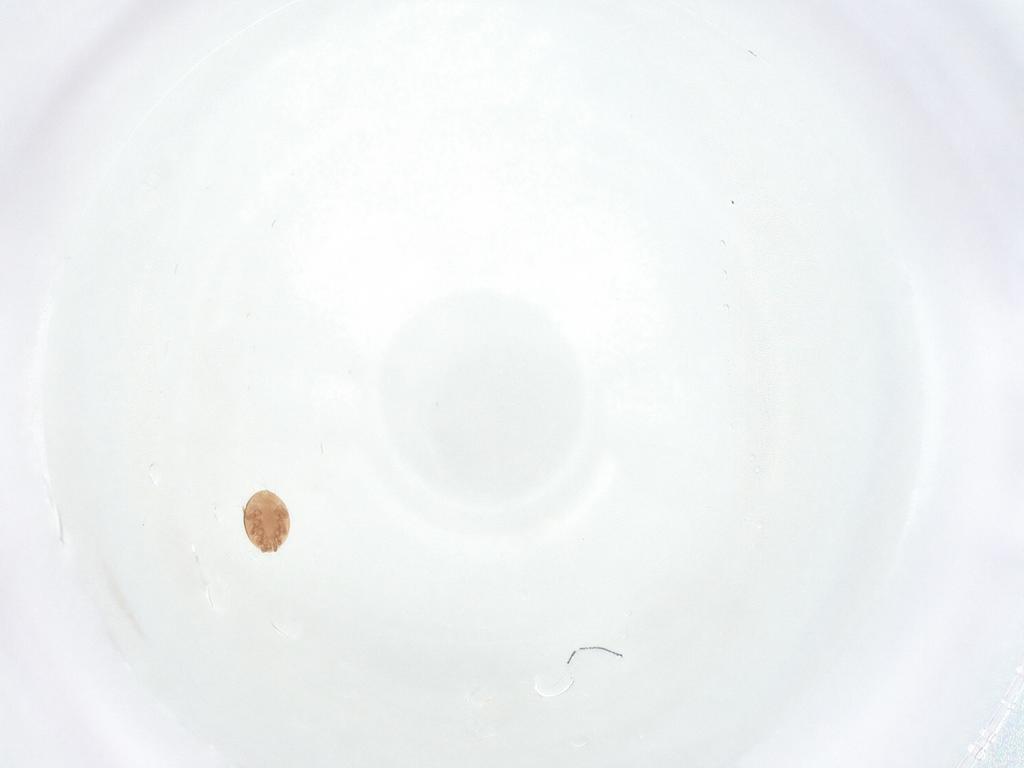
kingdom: Animalia
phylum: Arthropoda
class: Arachnida
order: Mesostigmata
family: Trematuridae
